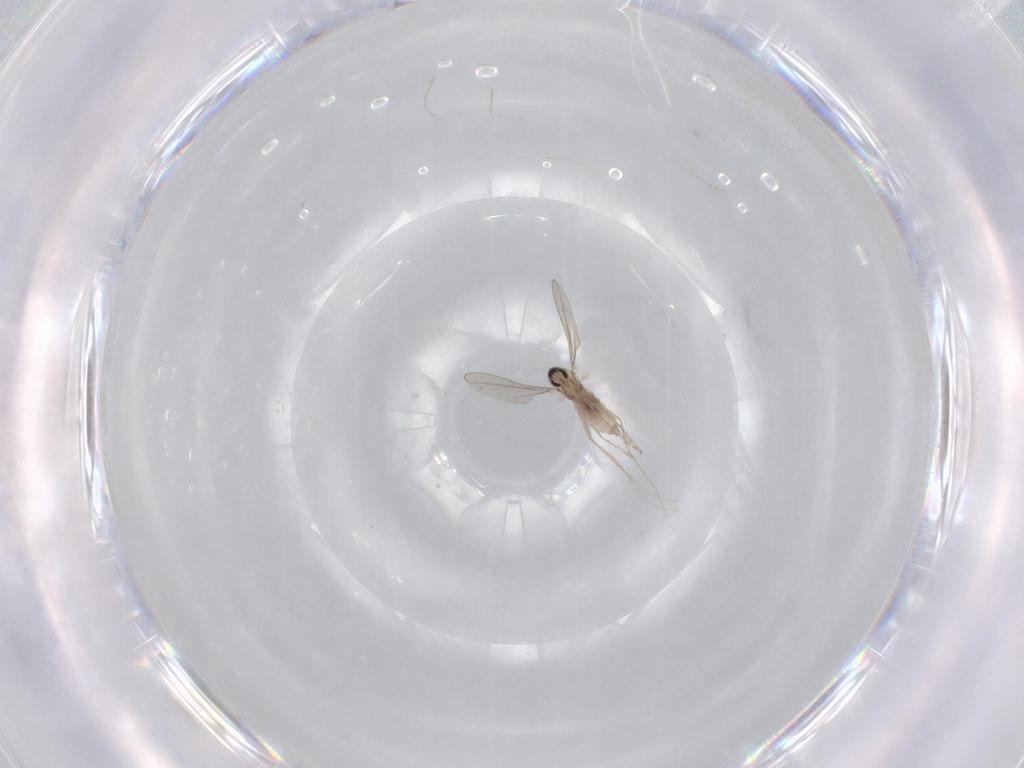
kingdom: Animalia
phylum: Arthropoda
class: Insecta
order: Diptera
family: Cecidomyiidae
